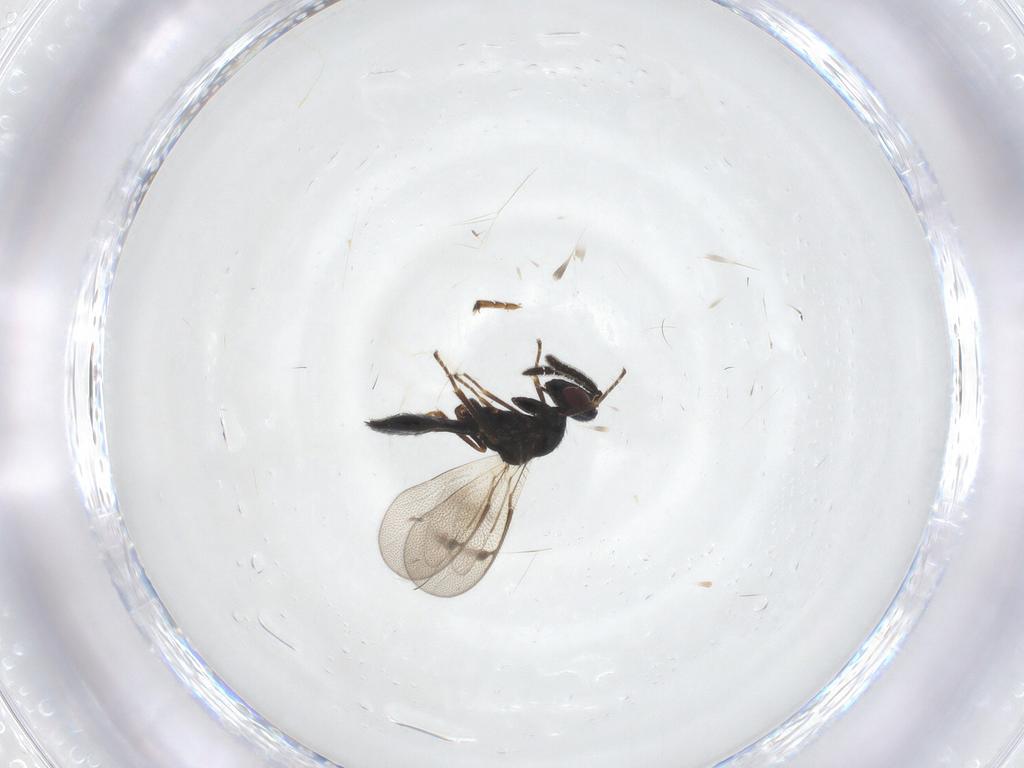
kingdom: Animalia
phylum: Arthropoda
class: Insecta
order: Hymenoptera
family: Pteromalidae
